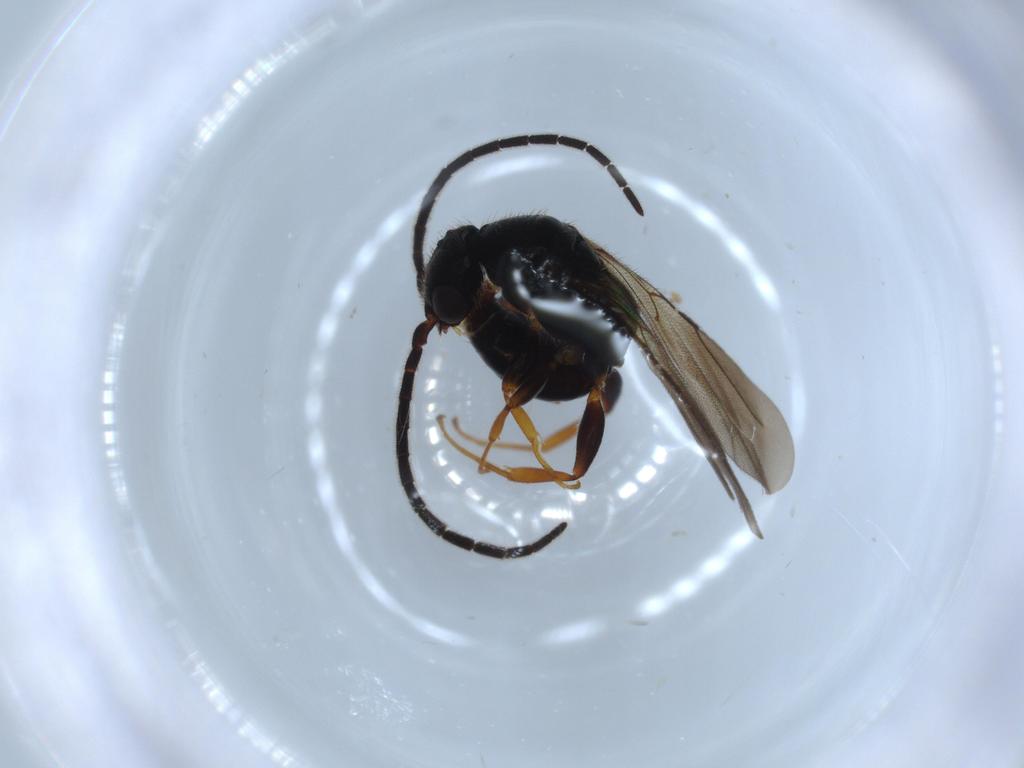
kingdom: Animalia
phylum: Arthropoda
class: Insecta
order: Hymenoptera
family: Bethylidae
